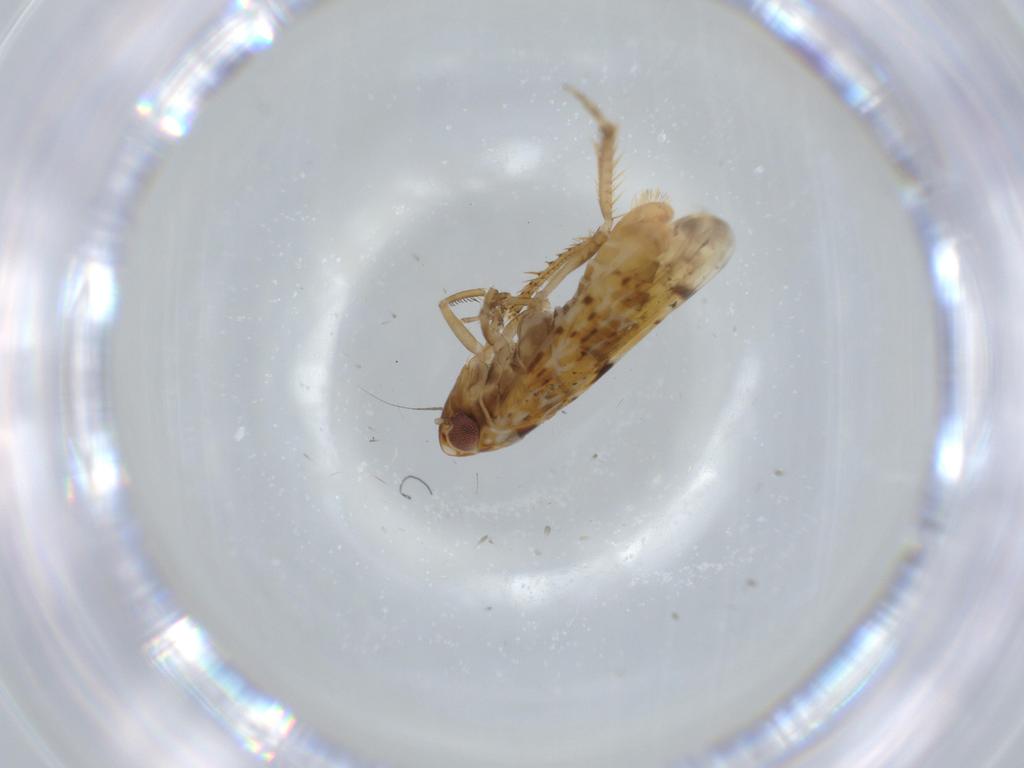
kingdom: Animalia
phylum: Arthropoda
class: Insecta
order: Hemiptera
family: Cicadellidae
